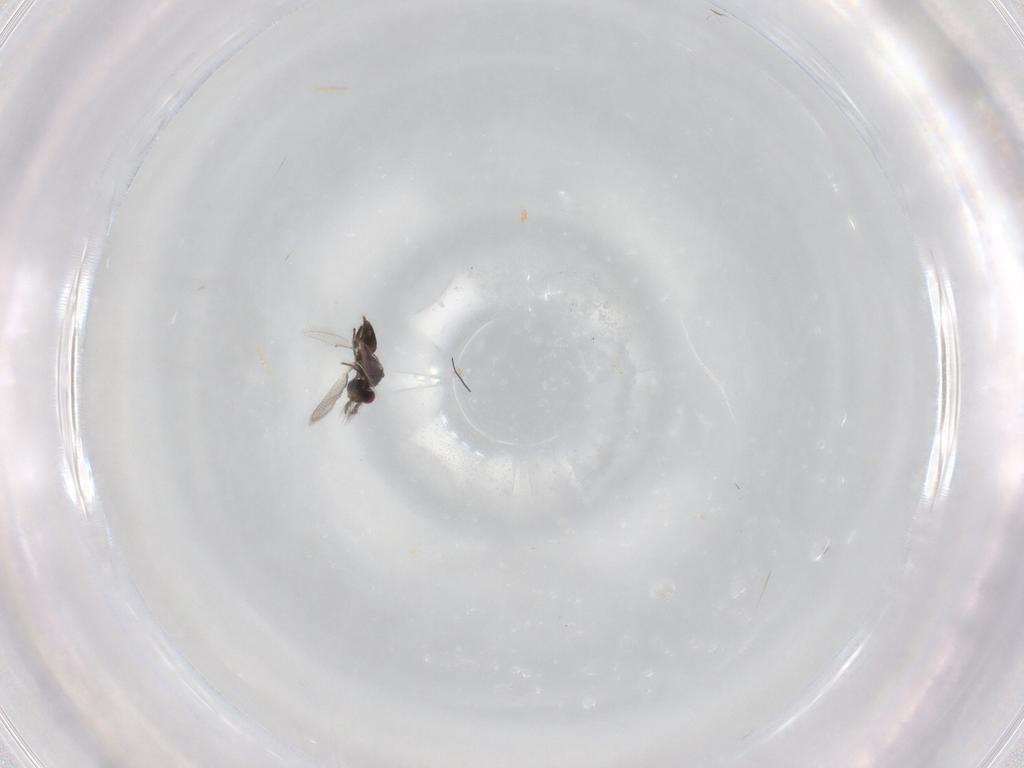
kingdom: Animalia
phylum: Arthropoda
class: Insecta
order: Hymenoptera
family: Eulophidae
